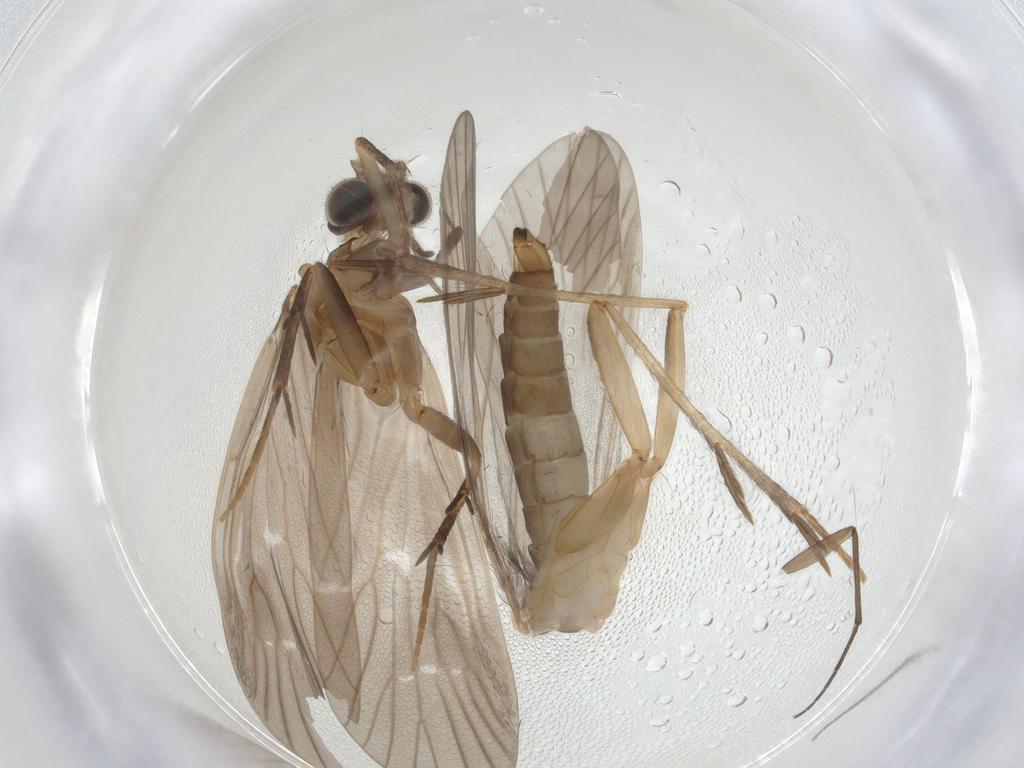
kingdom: Animalia
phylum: Arthropoda
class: Insecta
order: Trichoptera
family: Philopotamidae
